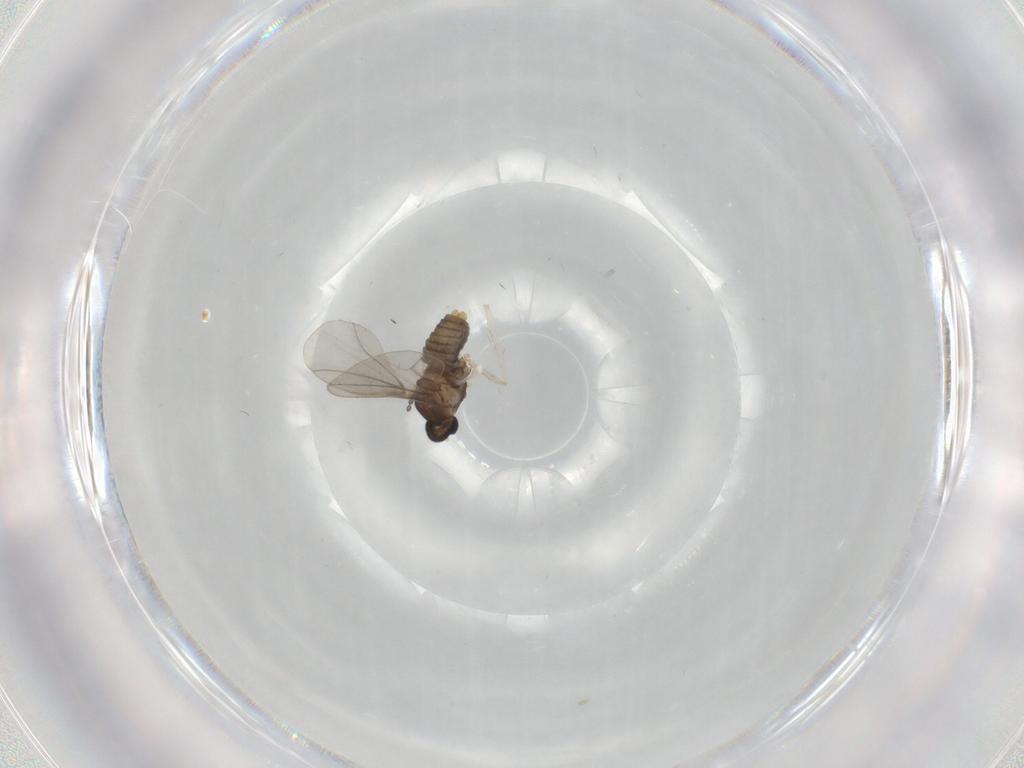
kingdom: Animalia
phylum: Arthropoda
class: Insecta
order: Diptera
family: Cecidomyiidae
